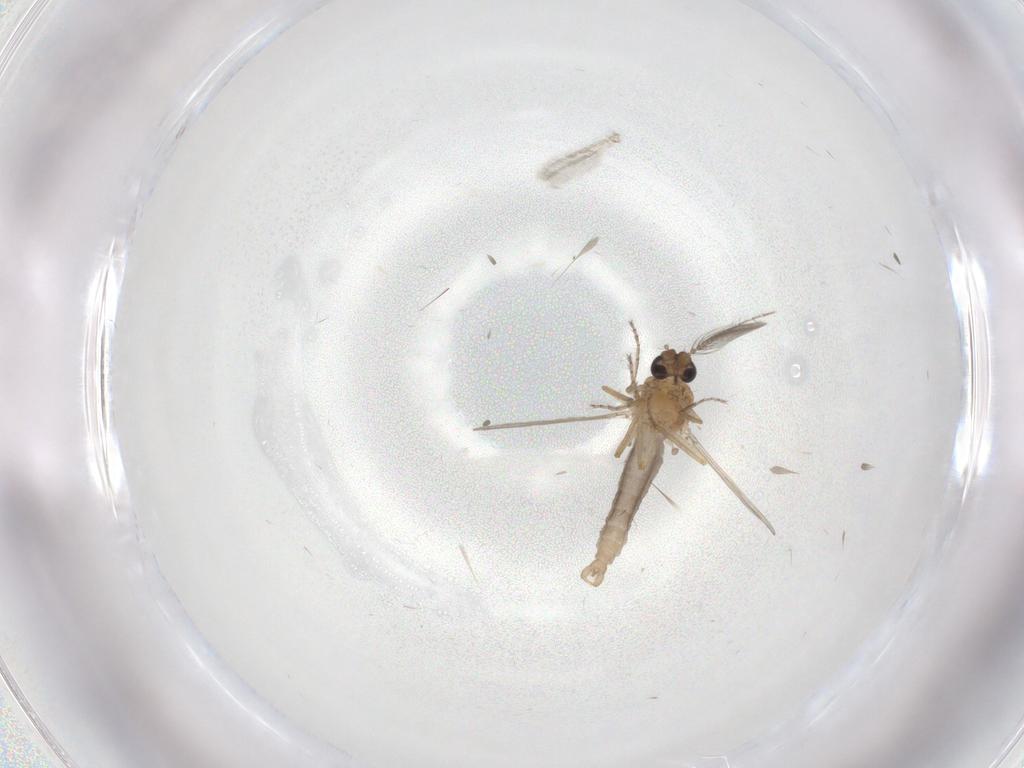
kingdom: Animalia
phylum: Arthropoda
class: Insecta
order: Diptera
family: Ceratopogonidae
